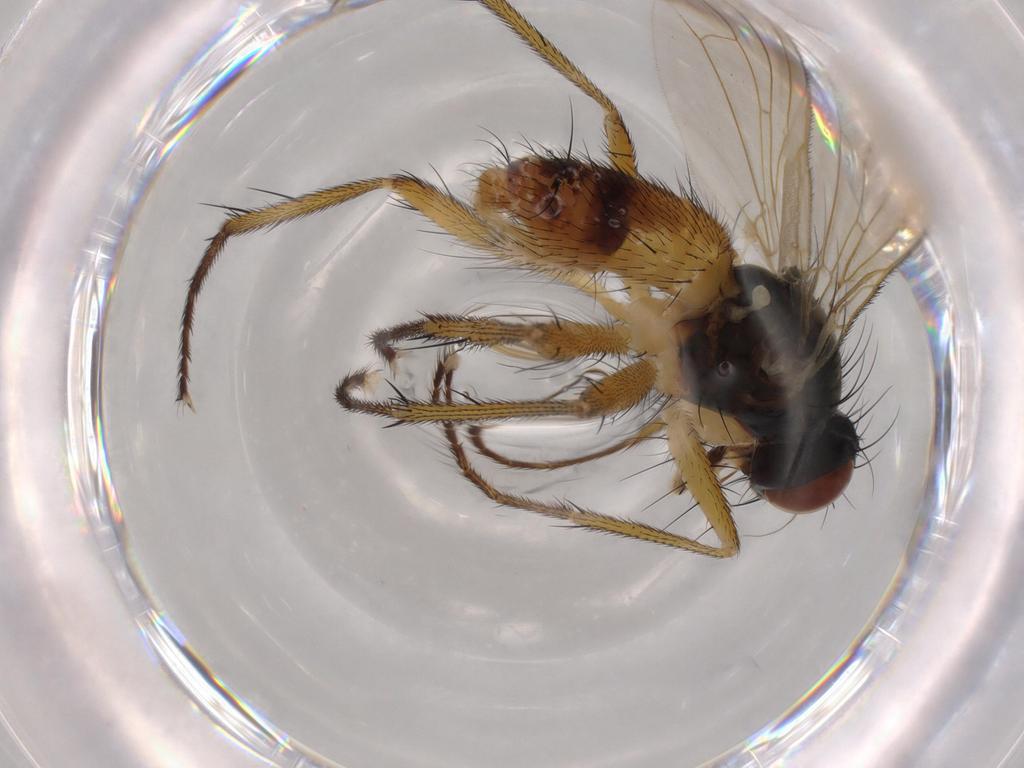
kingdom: Animalia
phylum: Arthropoda
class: Insecta
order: Diptera
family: Muscidae
